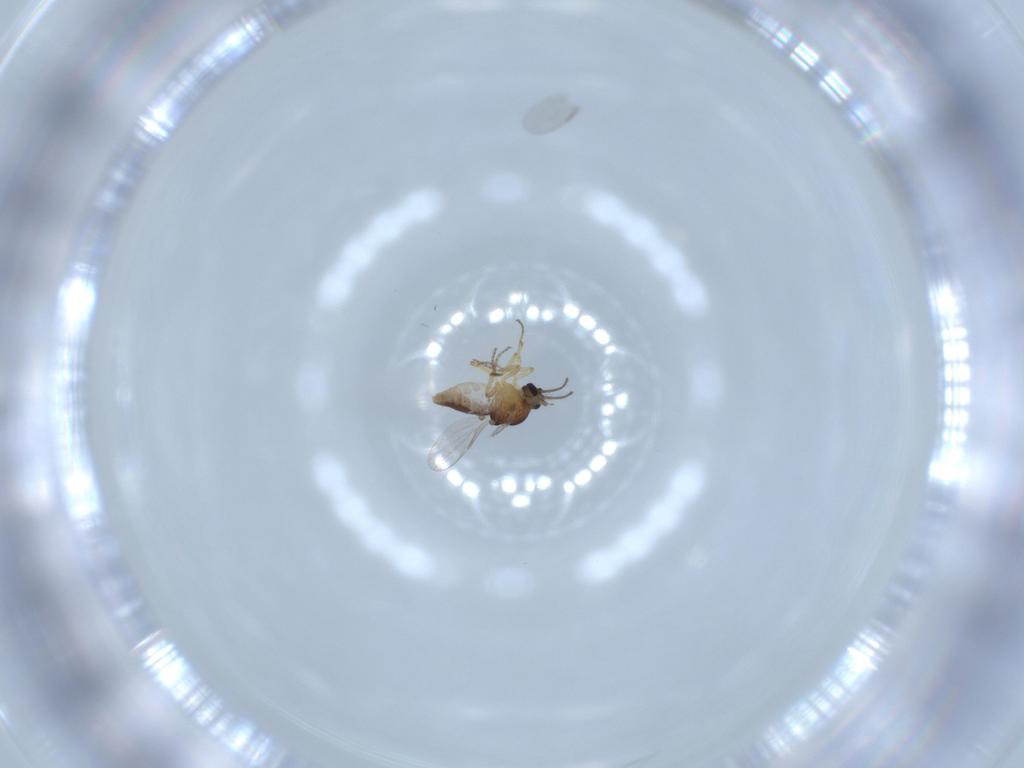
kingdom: Animalia
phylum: Arthropoda
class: Insecta
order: Diptera
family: Ceratopogonidae
